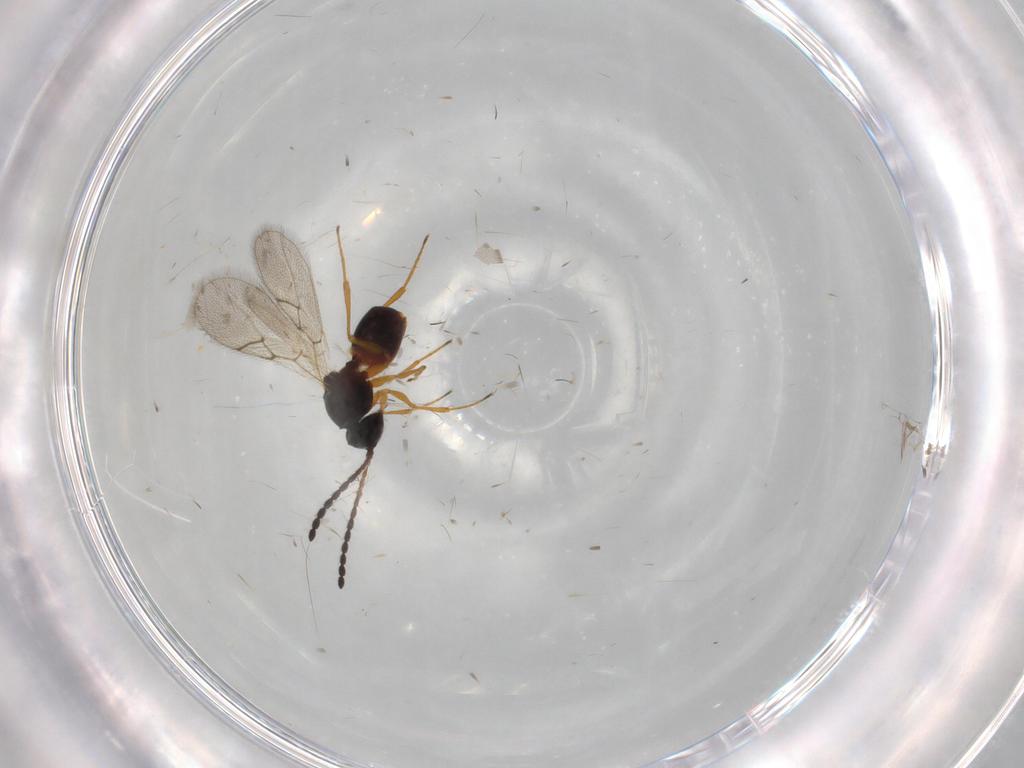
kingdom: Animalia
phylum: Arthropoda
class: Insecta
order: Hymenoptera
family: Figitidae
